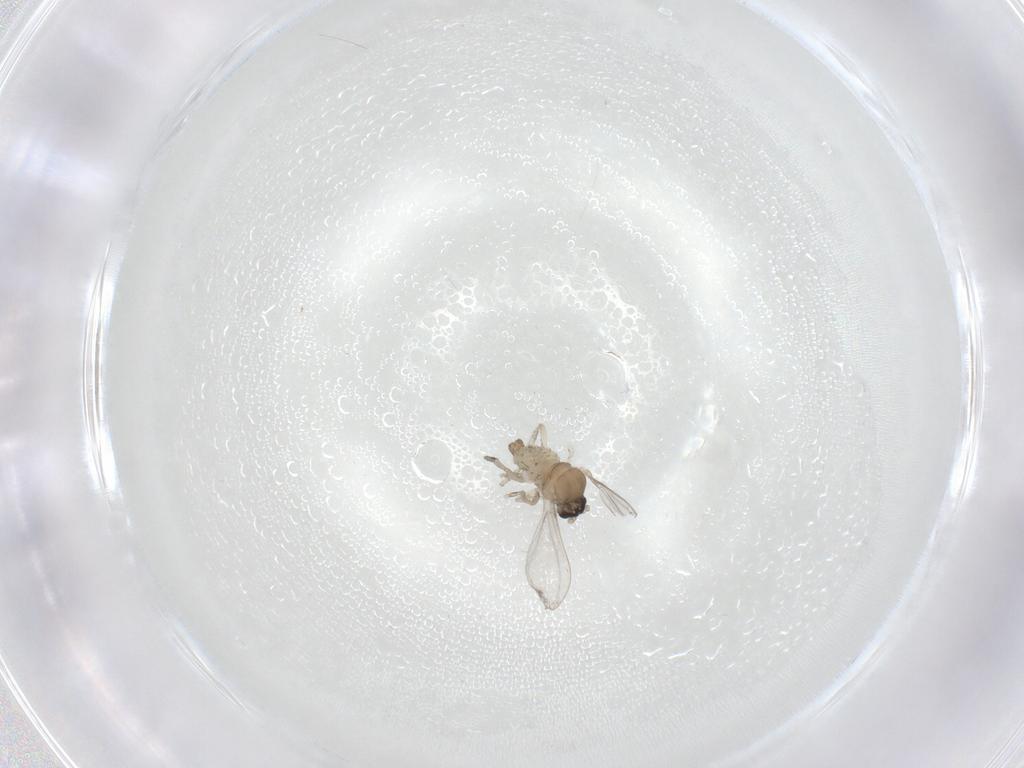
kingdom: Animalia
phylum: Arthropoda
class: Insecta
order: Diptera
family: Cecidomyiidae
